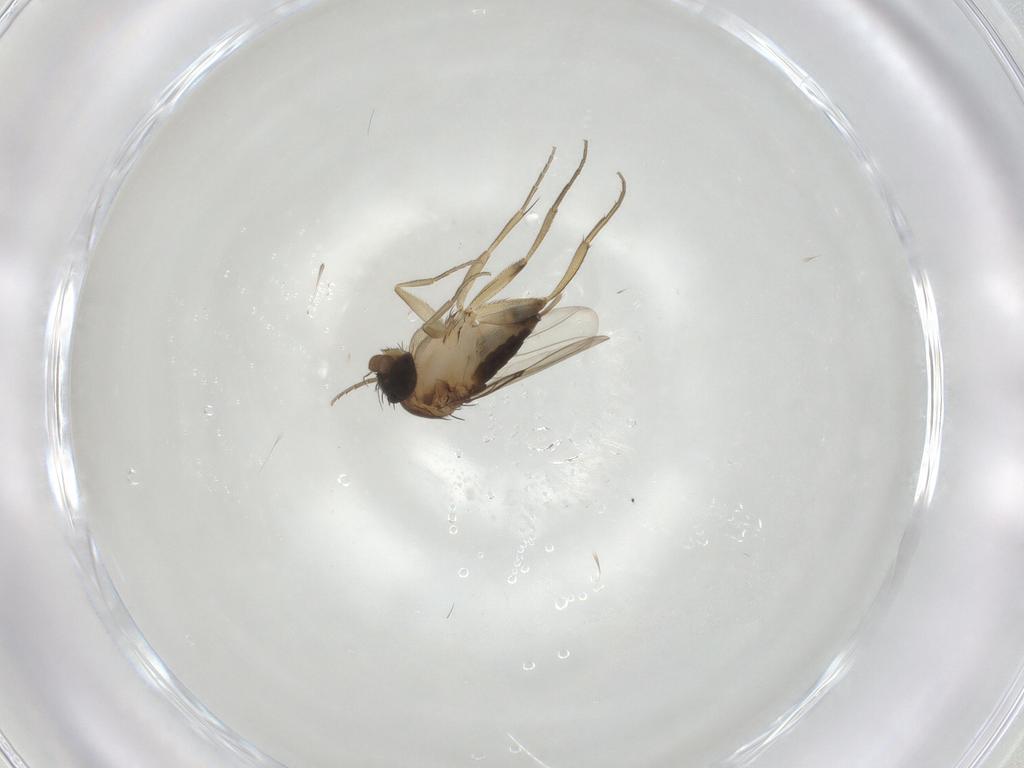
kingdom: Animalia
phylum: Arthropoda
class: Insecta
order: Diptera
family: Phoridae
